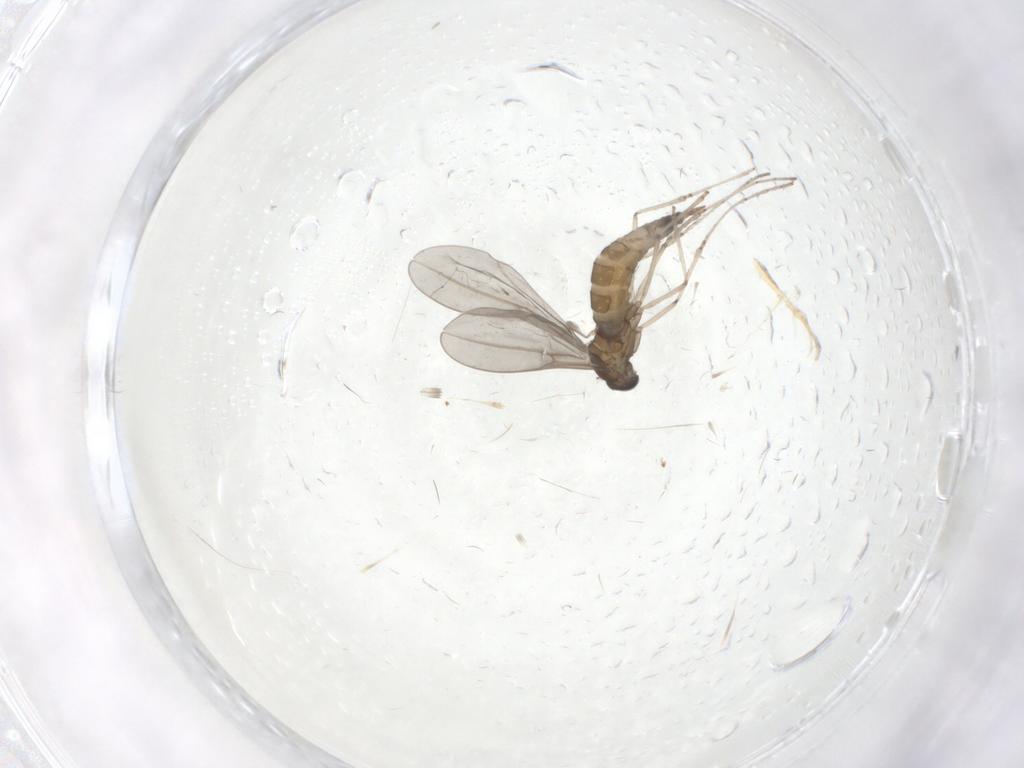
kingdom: Animalia
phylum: Arthropoda
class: Insecta
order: Diptera
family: Cecidomyiidae
